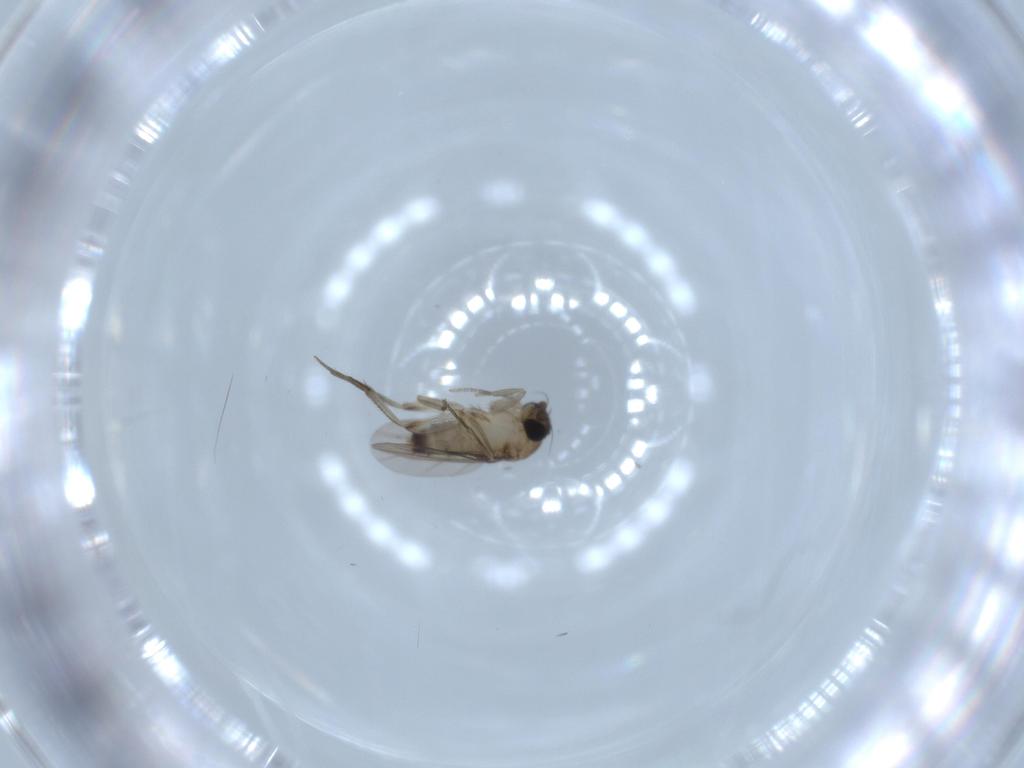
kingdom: Animalia
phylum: Arthropoda
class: Insecta
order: Diptera
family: Phoridae
